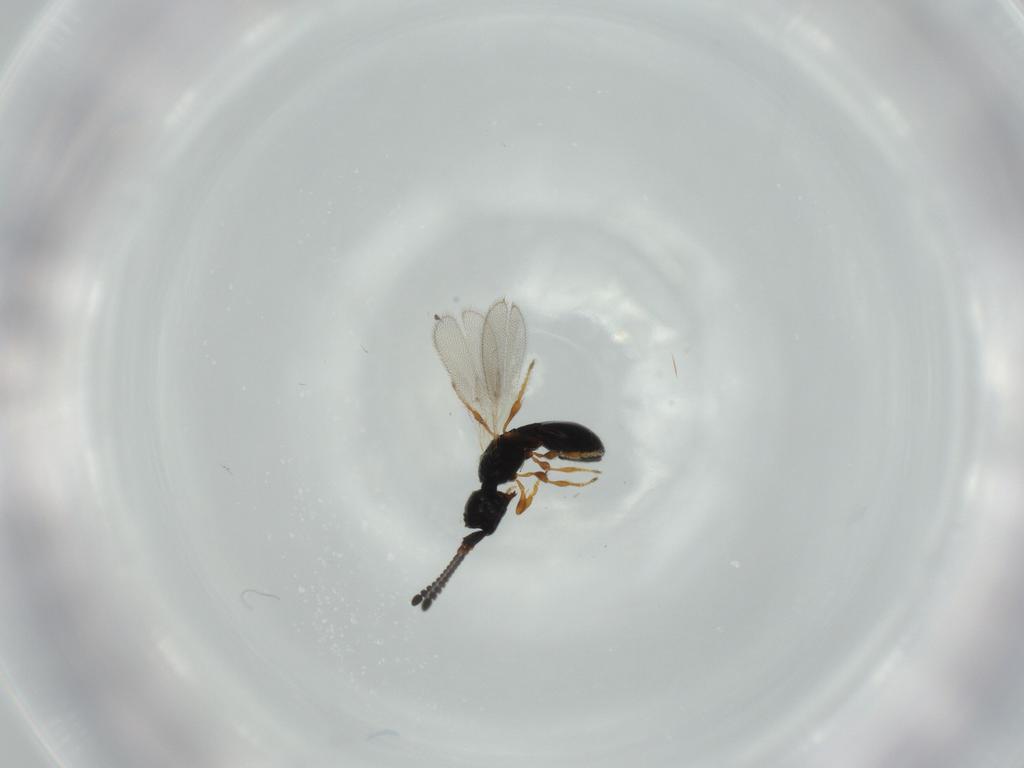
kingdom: Animalia
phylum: Arthropoda
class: Insecta
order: Hymenoptera
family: Diapriidae
